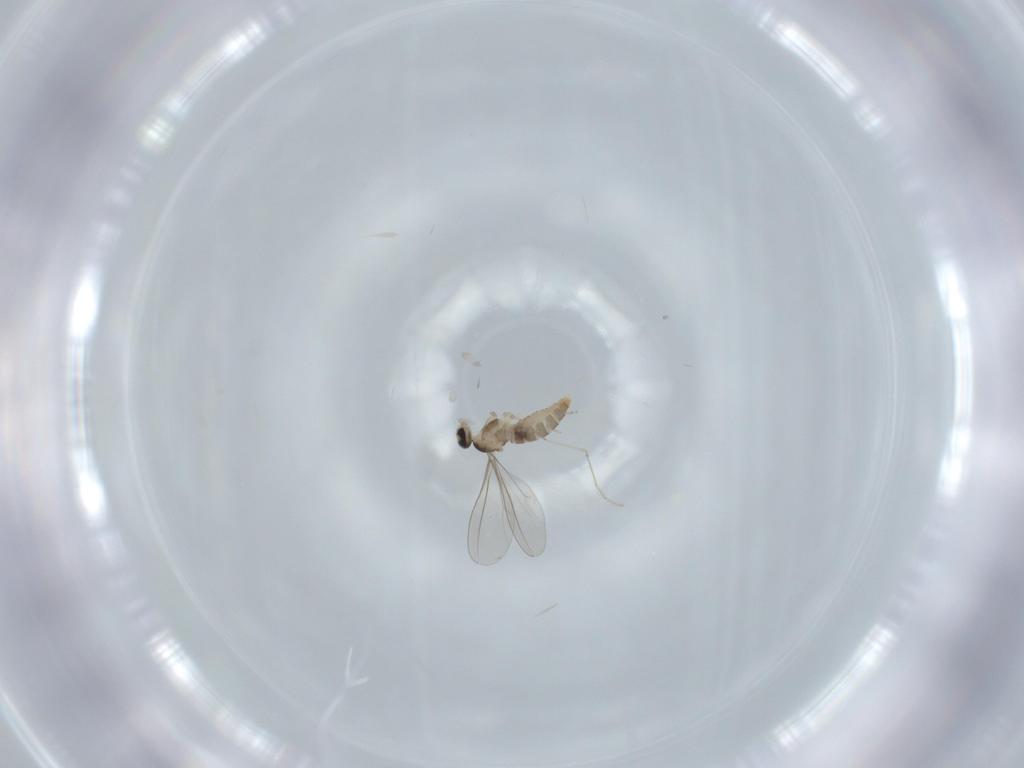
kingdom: Animalia
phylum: Arthropoda
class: Insecta
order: Diptera
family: Phoridae
